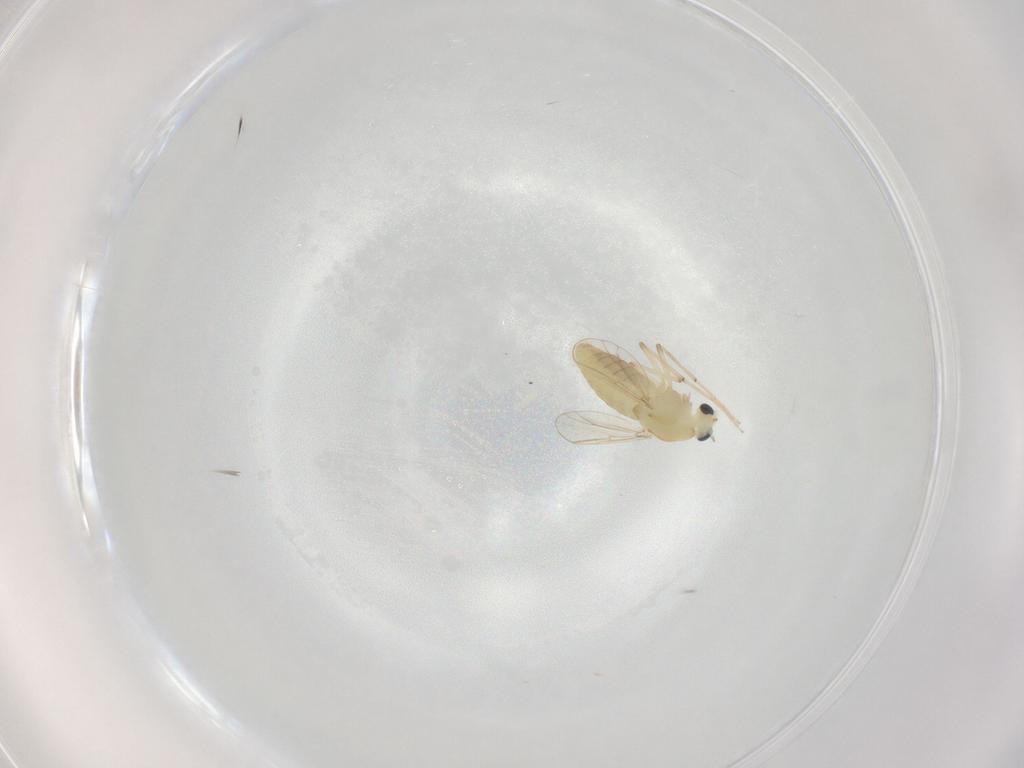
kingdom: Animalia
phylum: Arthropoda
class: Insecta
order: Diptera
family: Chironomidae
